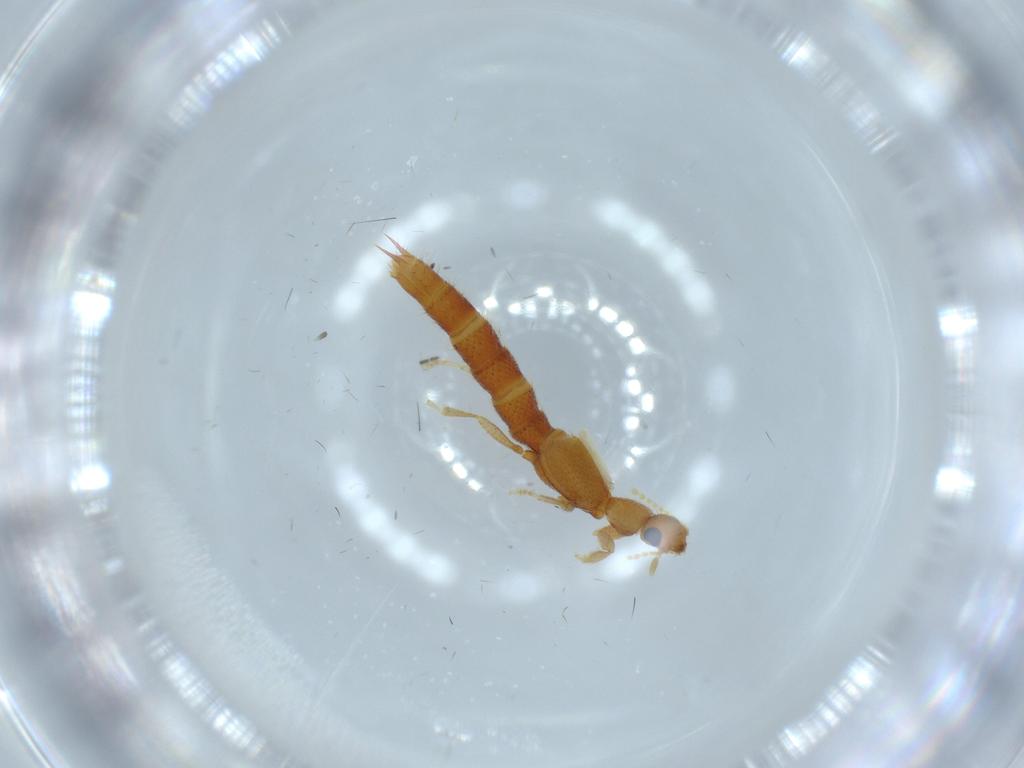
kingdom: Animalia
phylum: Arthropoda
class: Insecta
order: Coleoptera
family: Staphylinidae
